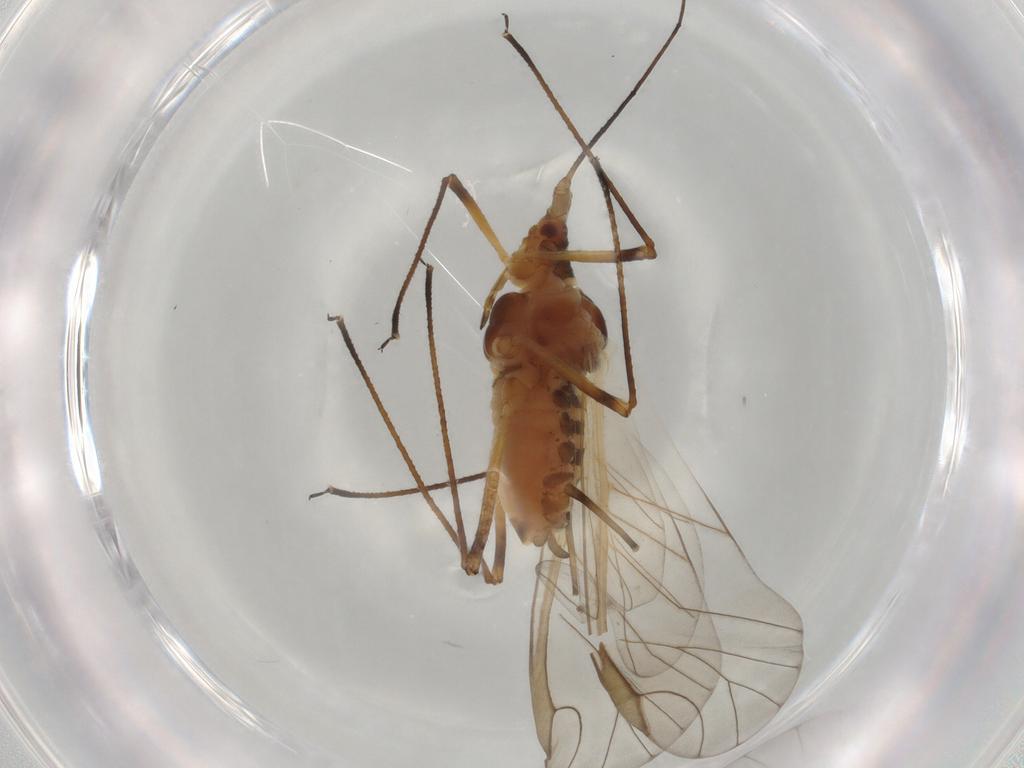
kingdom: Animalia
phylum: Arthropoda
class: Insecta
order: Hemiptera
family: Aphididae
